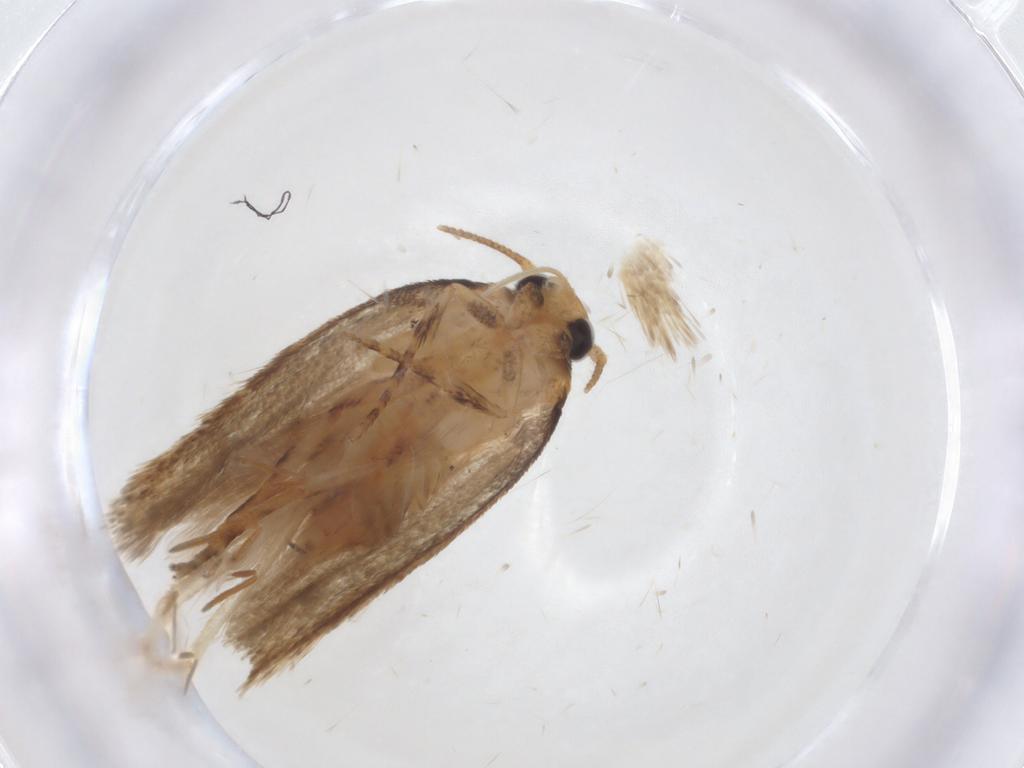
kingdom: Animalia
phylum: Arthropoda
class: Insecta
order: Lepidoptera
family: Oecophoridae
